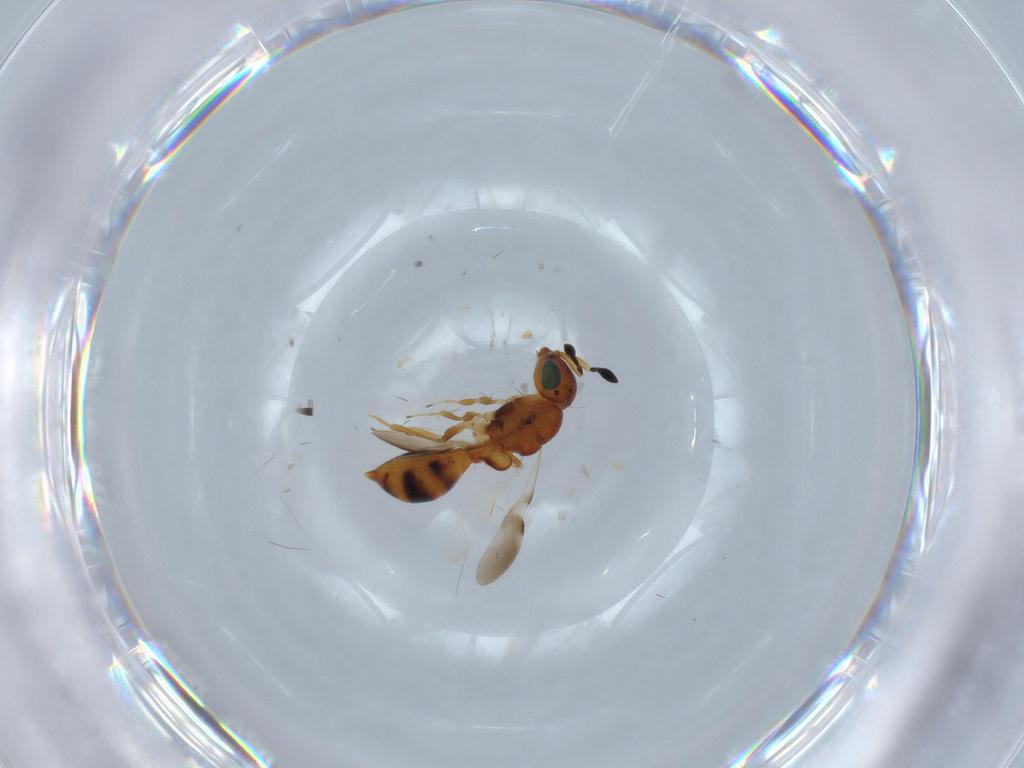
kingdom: Animalia
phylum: Arthropoda
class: Insecta
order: Hymenoptera
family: Scelionidae
